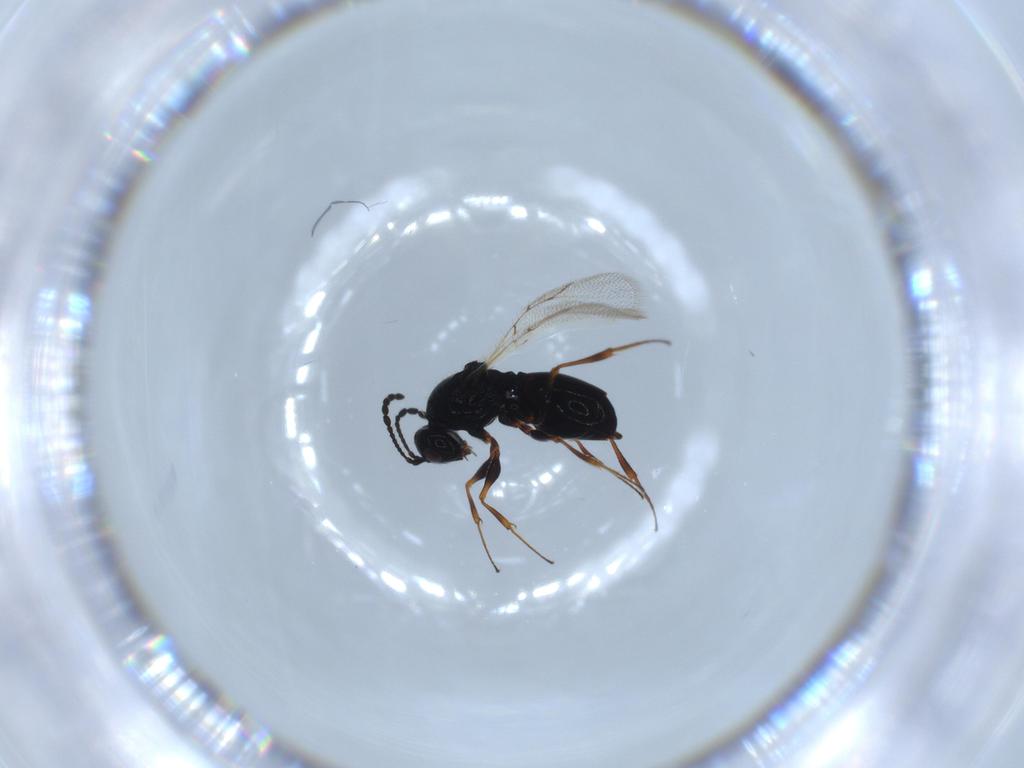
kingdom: Animalia
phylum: Arthropoda
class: Insecta
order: Hymenoptera
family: Figitidae
